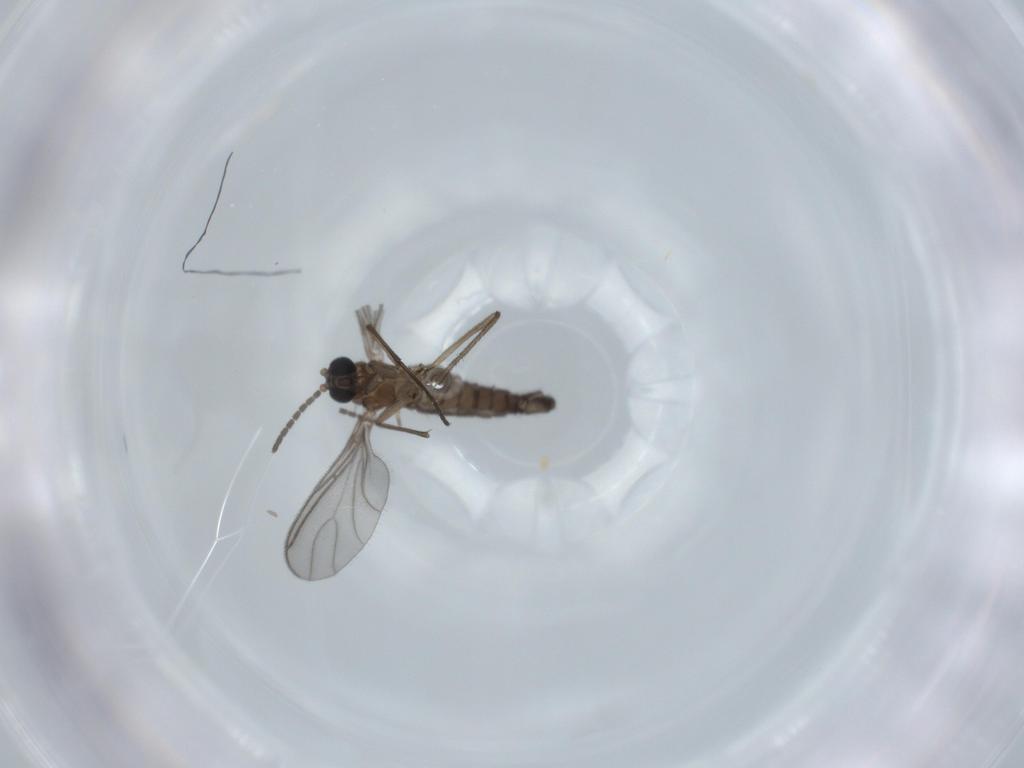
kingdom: Animalia
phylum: Arthropoda
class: Insecta
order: Diptera
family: Sciaridae
